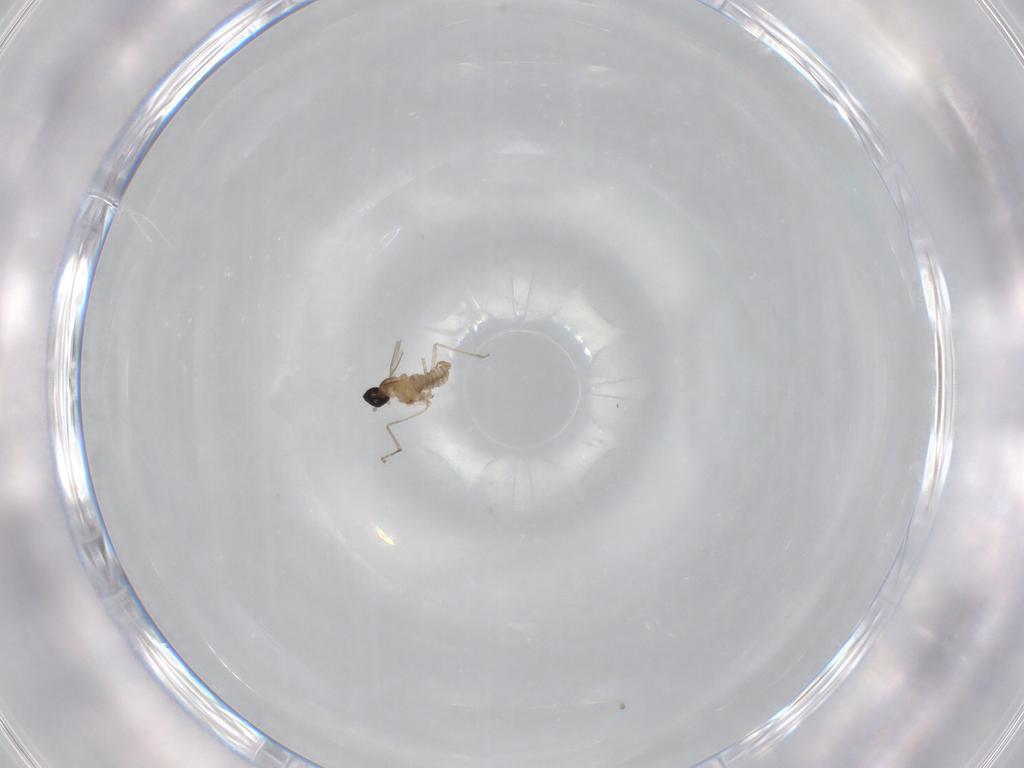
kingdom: Animalia
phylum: Arthropoda
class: Insecta
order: Diptera
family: Cecidomyiidae
